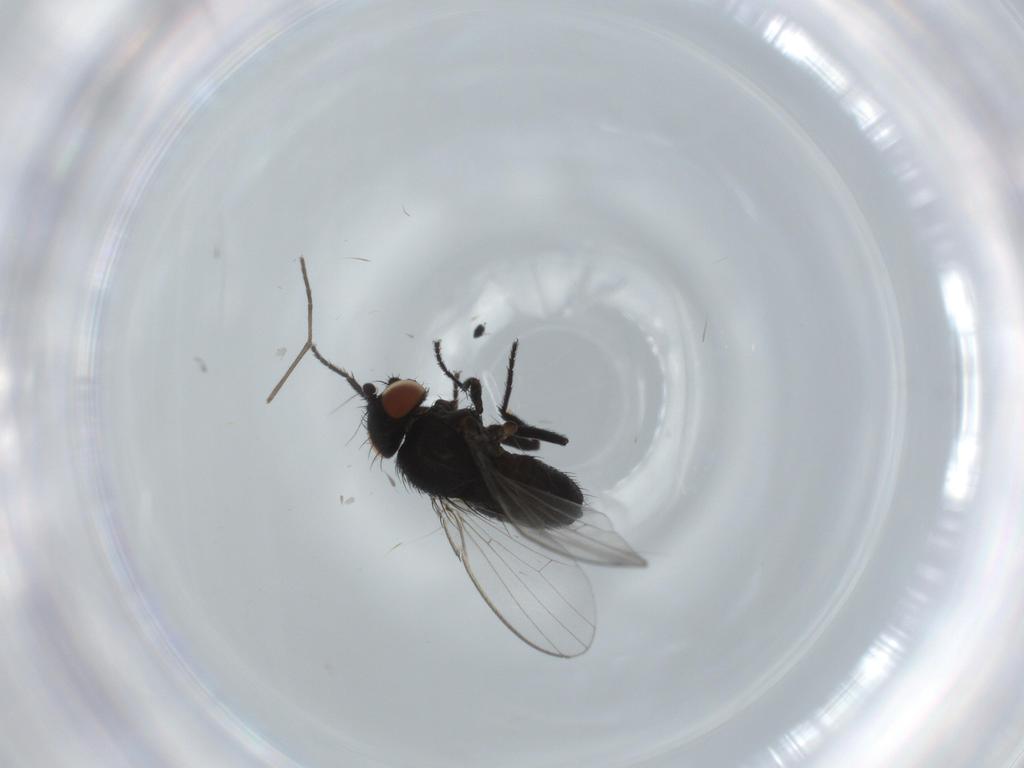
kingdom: Animalia
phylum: Arthropoda
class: Insecta
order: Diptera
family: Milichiidae
